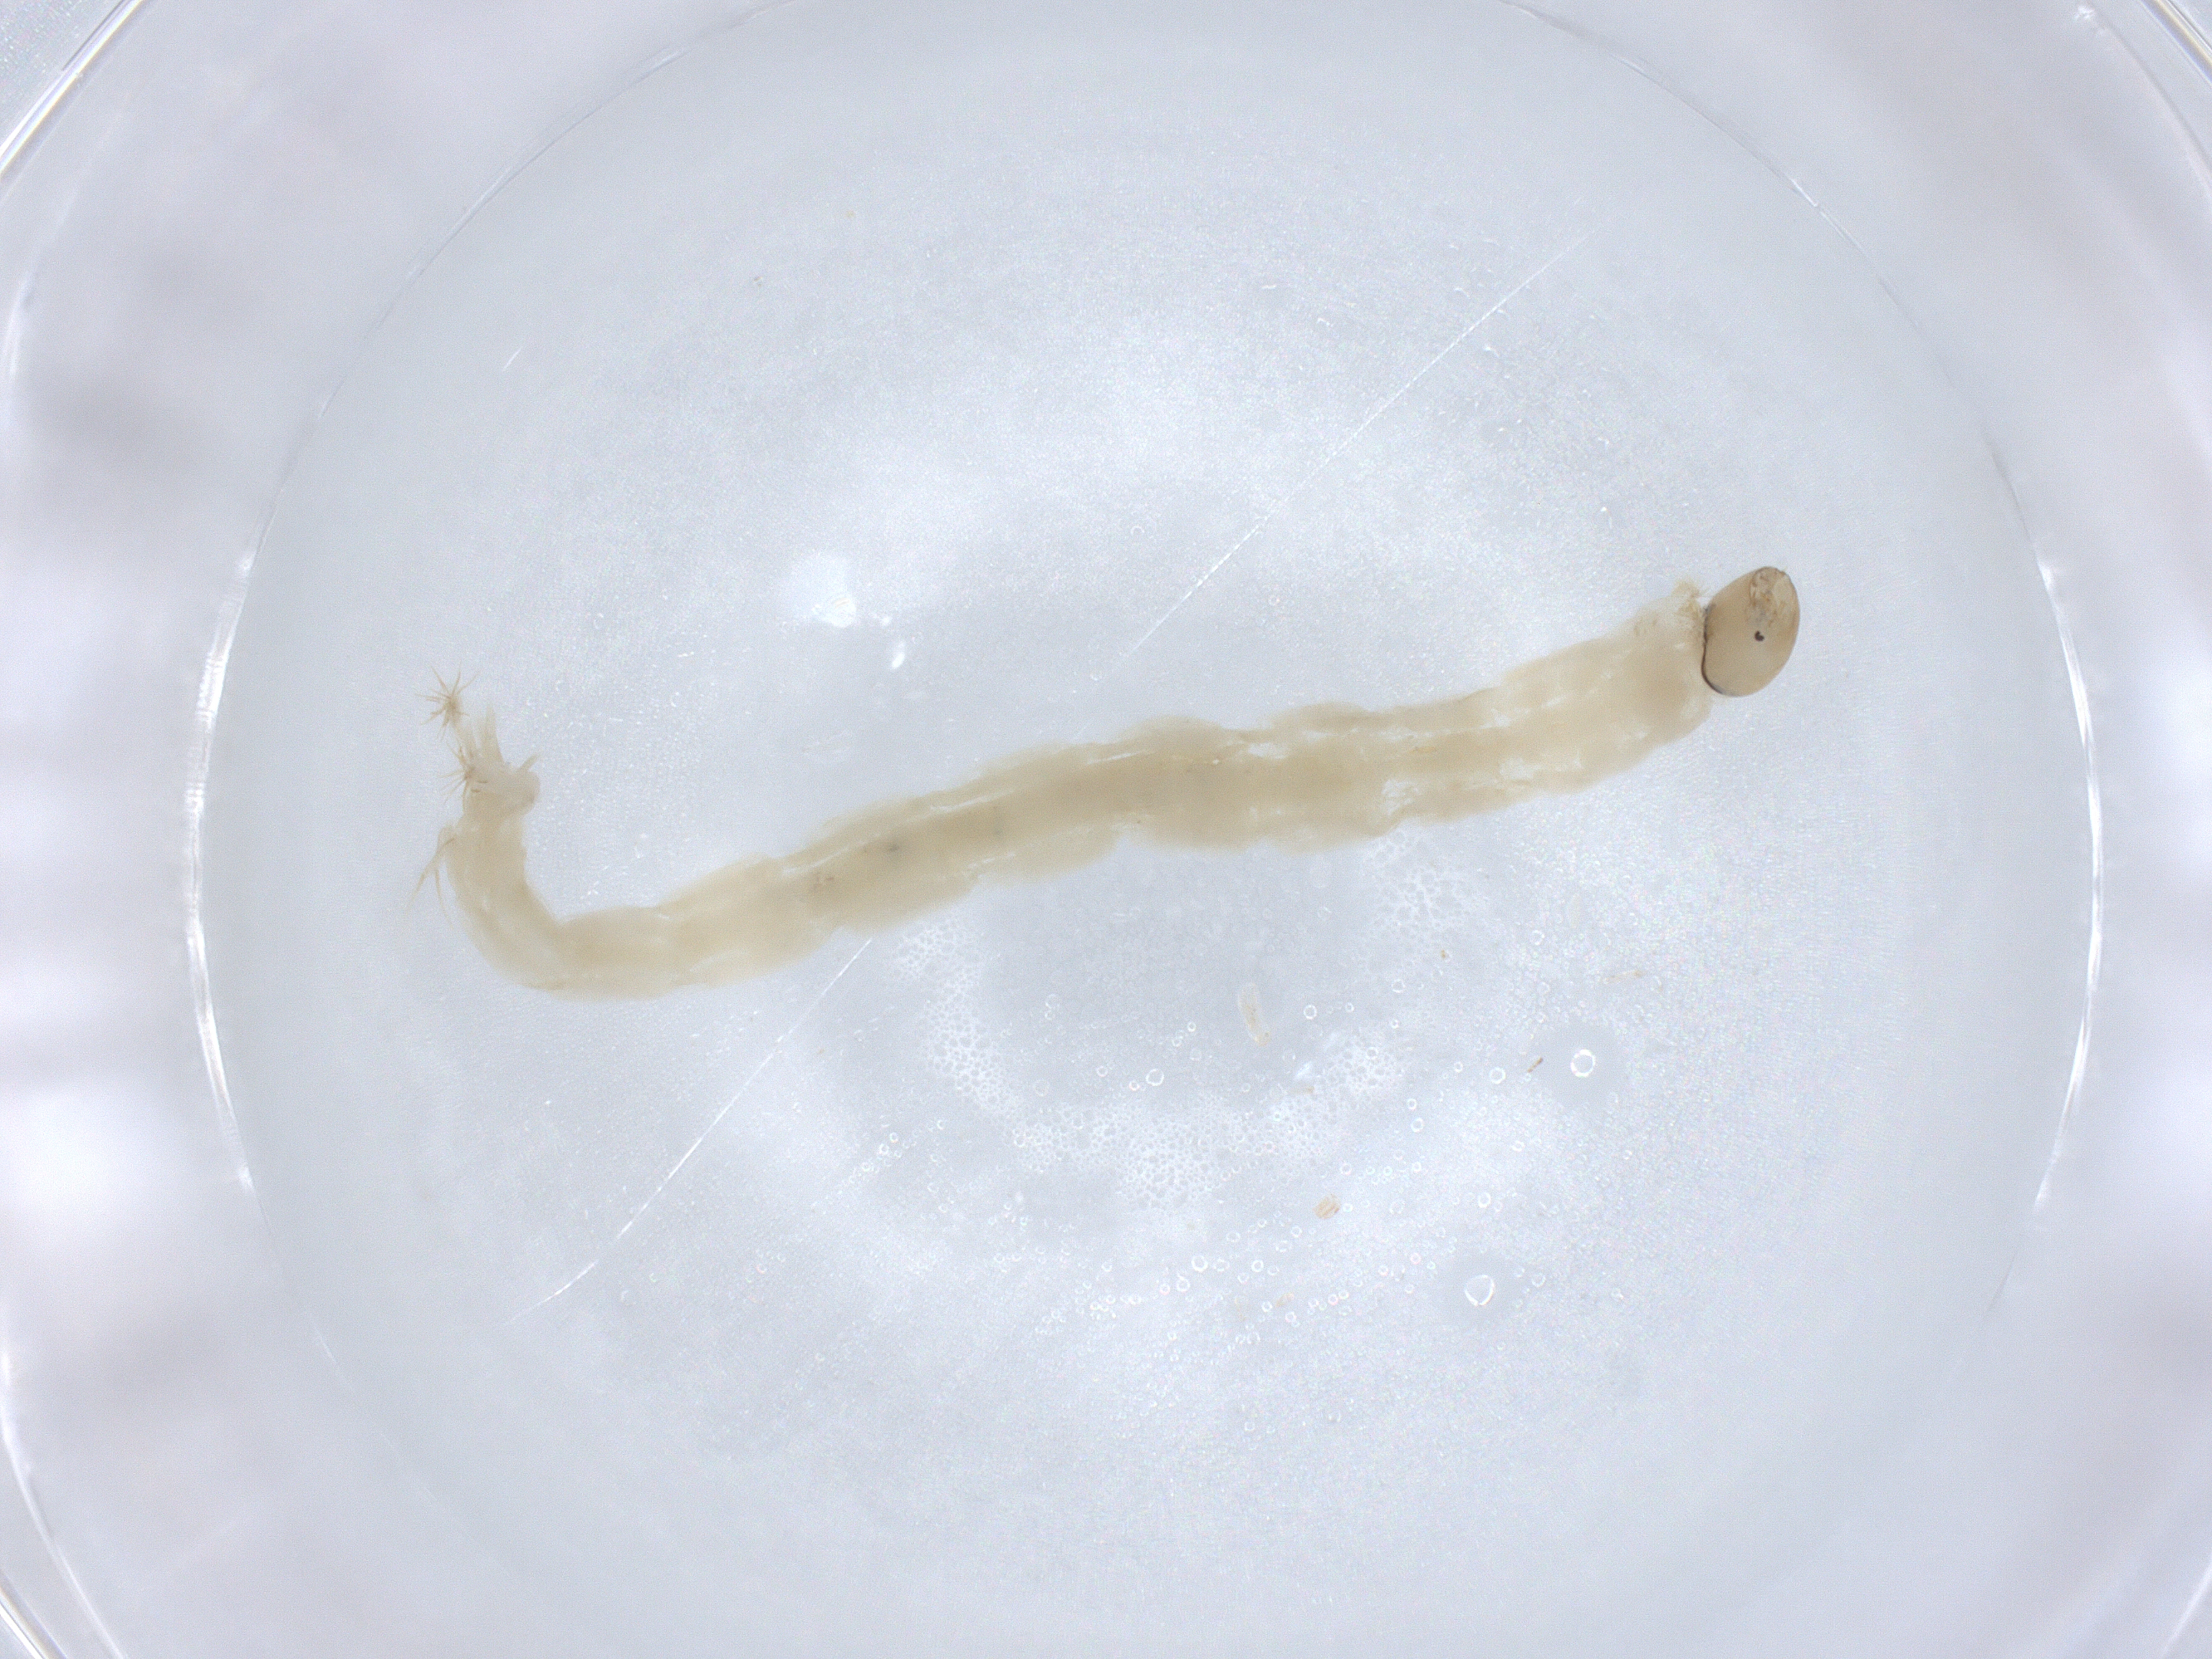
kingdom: Animalia
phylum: Arthropoda
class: Insecta
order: Diptera
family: Chironomidae
